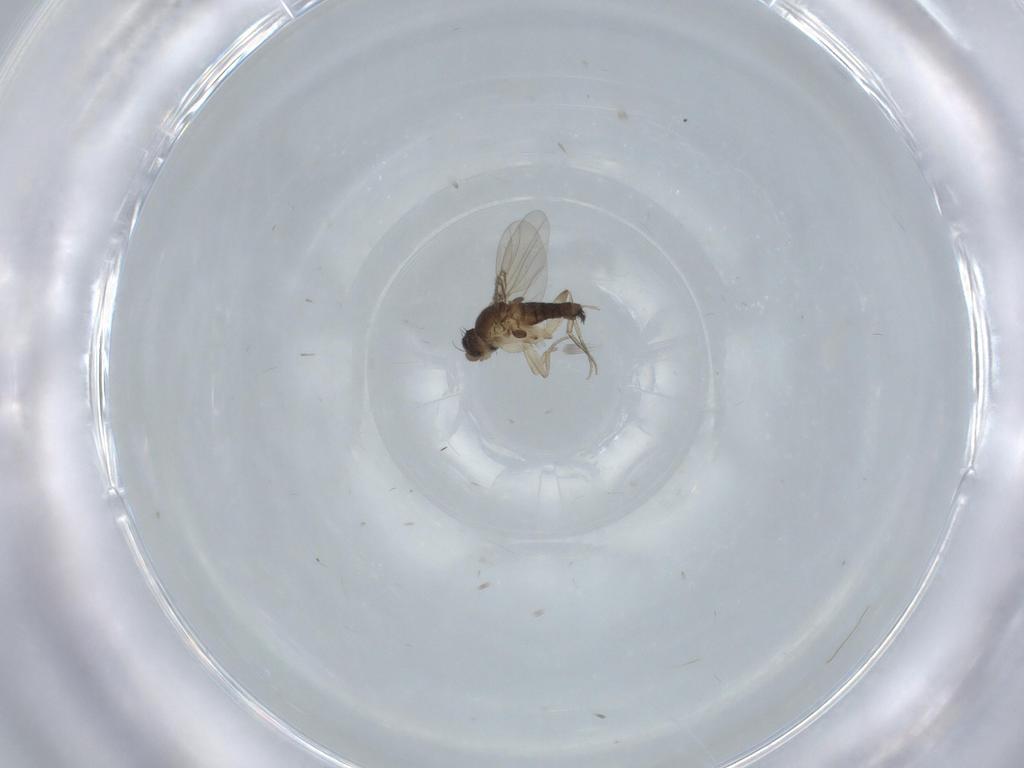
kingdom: Animalia
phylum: Arthropoda
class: Insecta
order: Diptera
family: Phoridae
